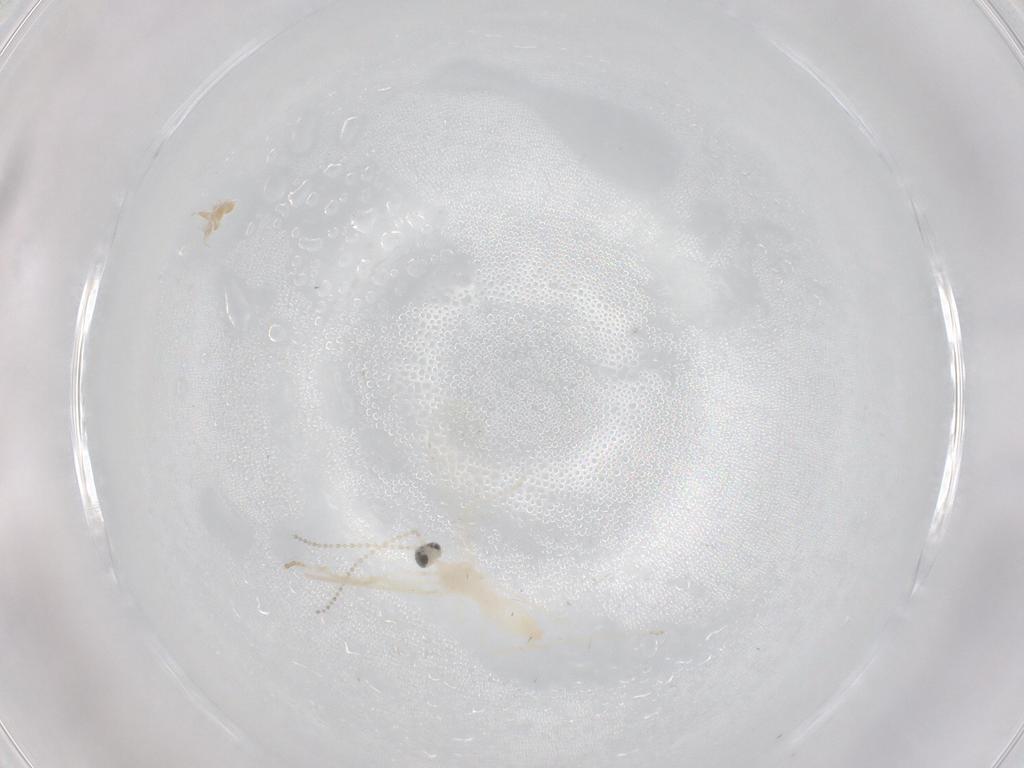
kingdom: Animalia
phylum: Arthropoda
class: Insecta
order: Diptera
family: Cecidomyiidae
